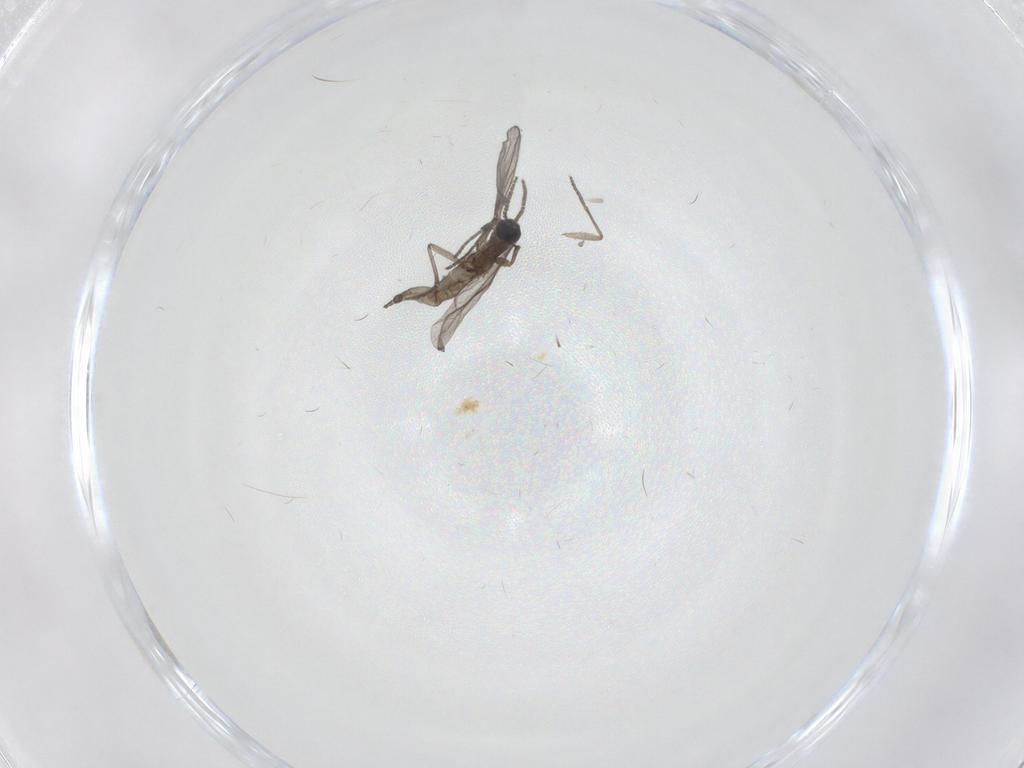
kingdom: Animalia
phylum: Arthropoda
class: Insecta
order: Diptera
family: Psychodidae
